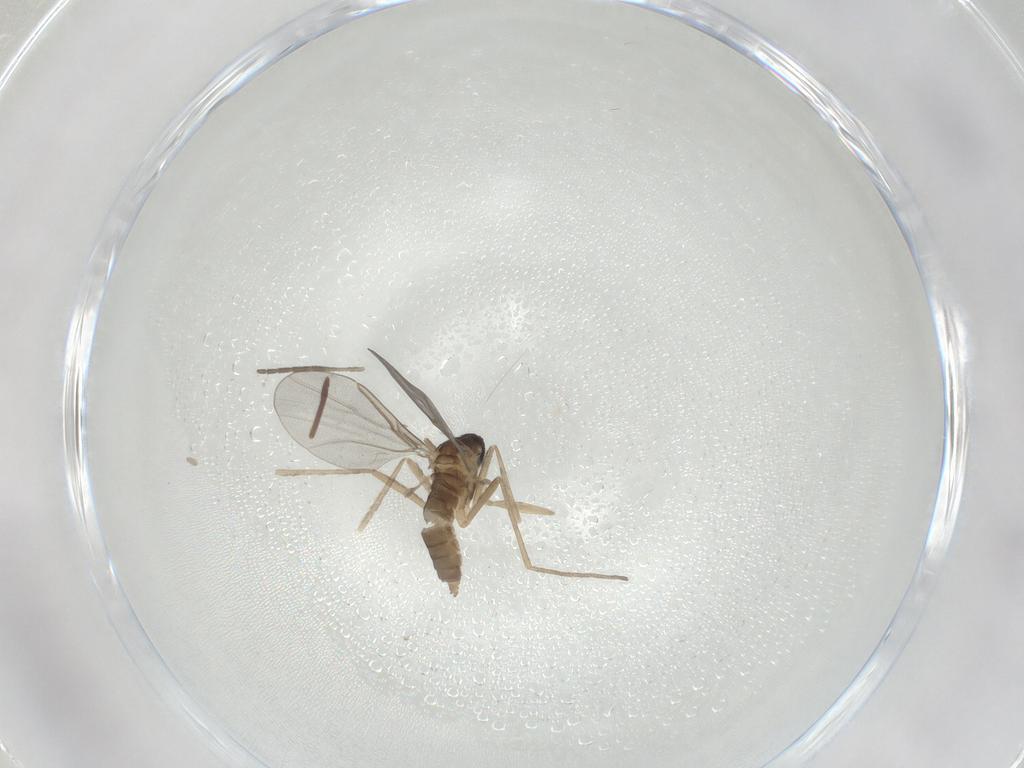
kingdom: Animalia
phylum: Arthropoda
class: Insecta
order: Diptera
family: Cecidomyiidae
